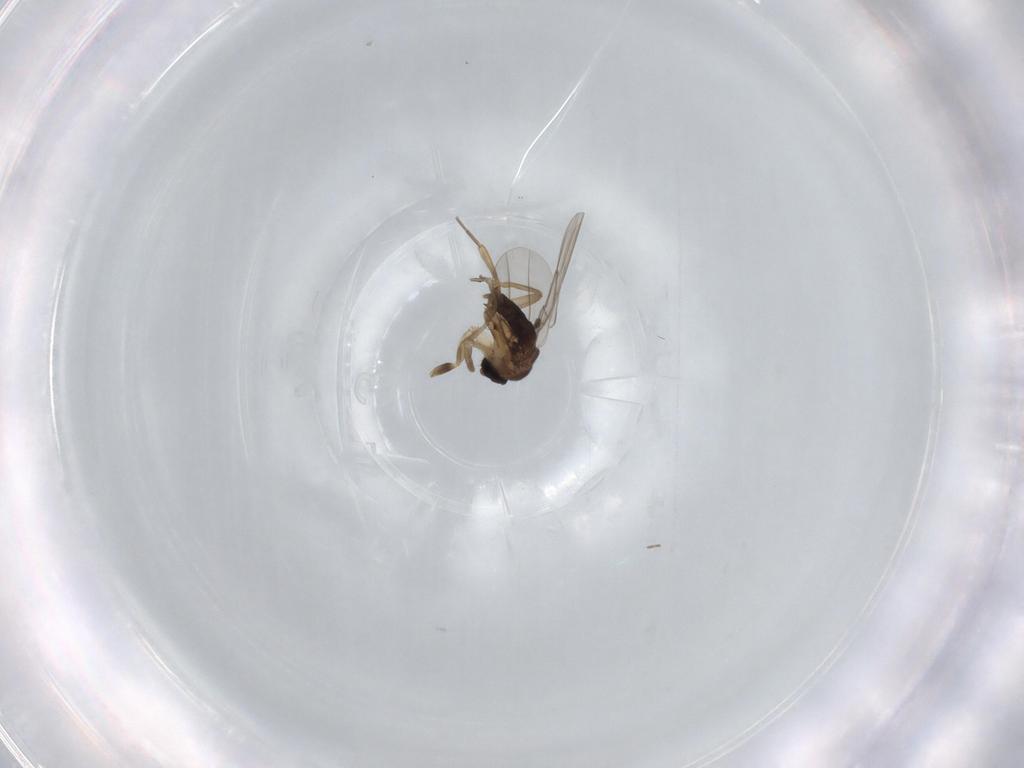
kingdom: Animalia
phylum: Arthropoda
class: Insecta
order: Diptera
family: Phoridae
